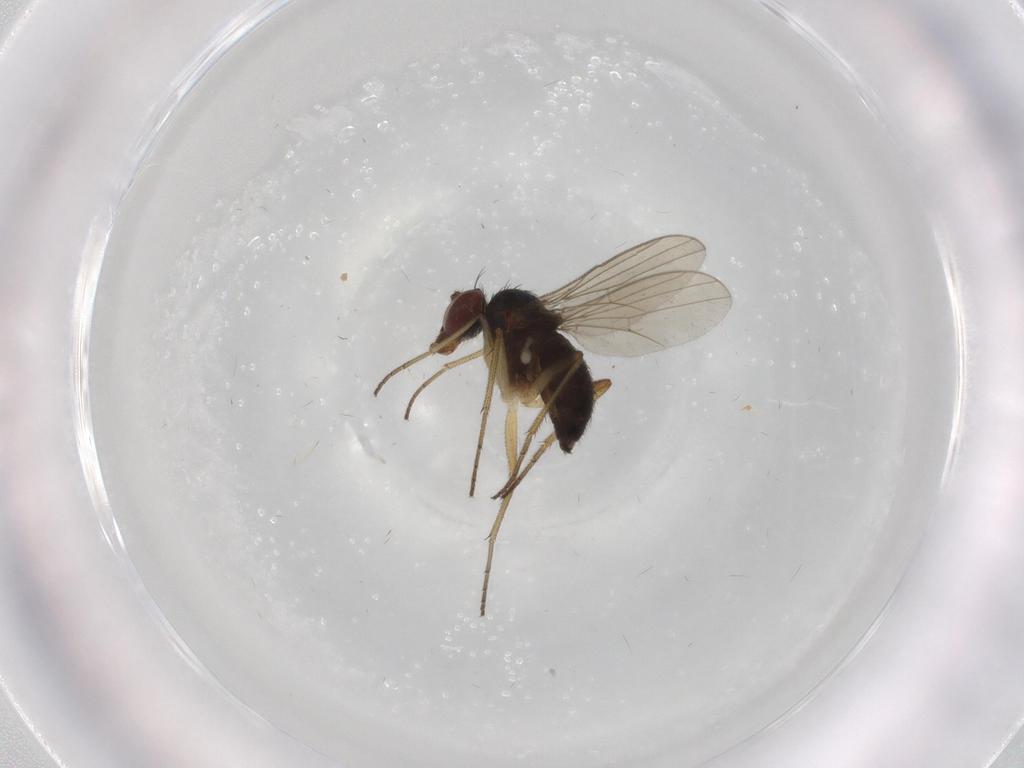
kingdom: Animalia
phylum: Arthropoda
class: Insecta
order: Diptera
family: Dolichopodidae
